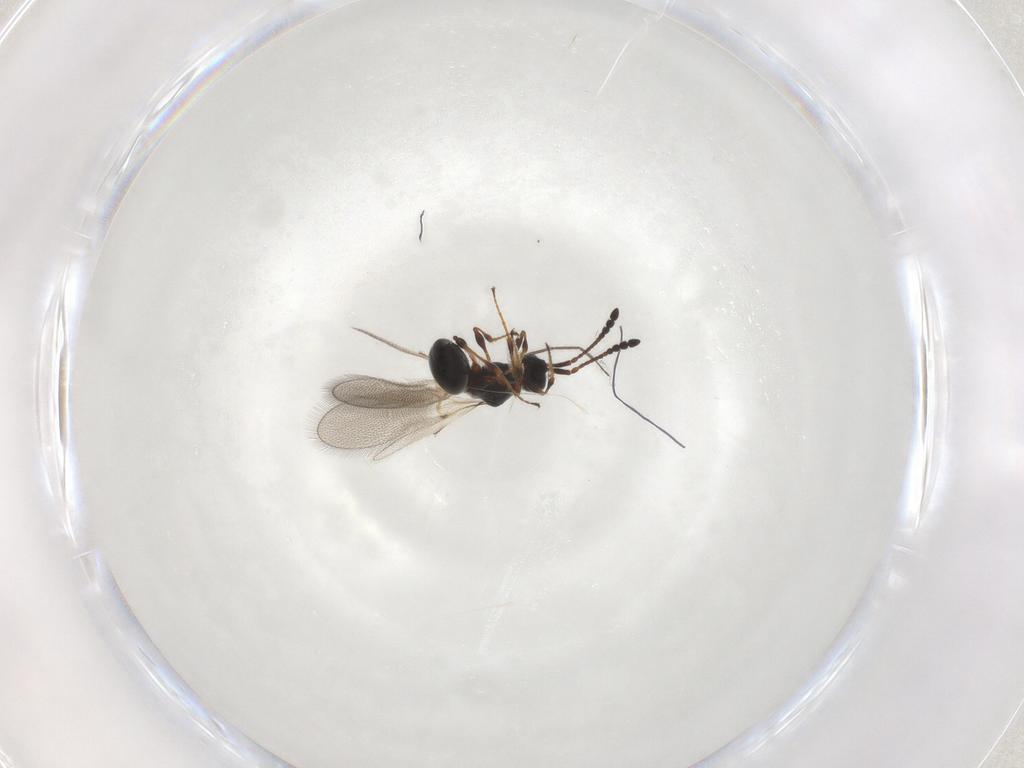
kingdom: Animalia
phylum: Arthropoda
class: Insecta
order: Hymenoptera
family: Diapriidae
